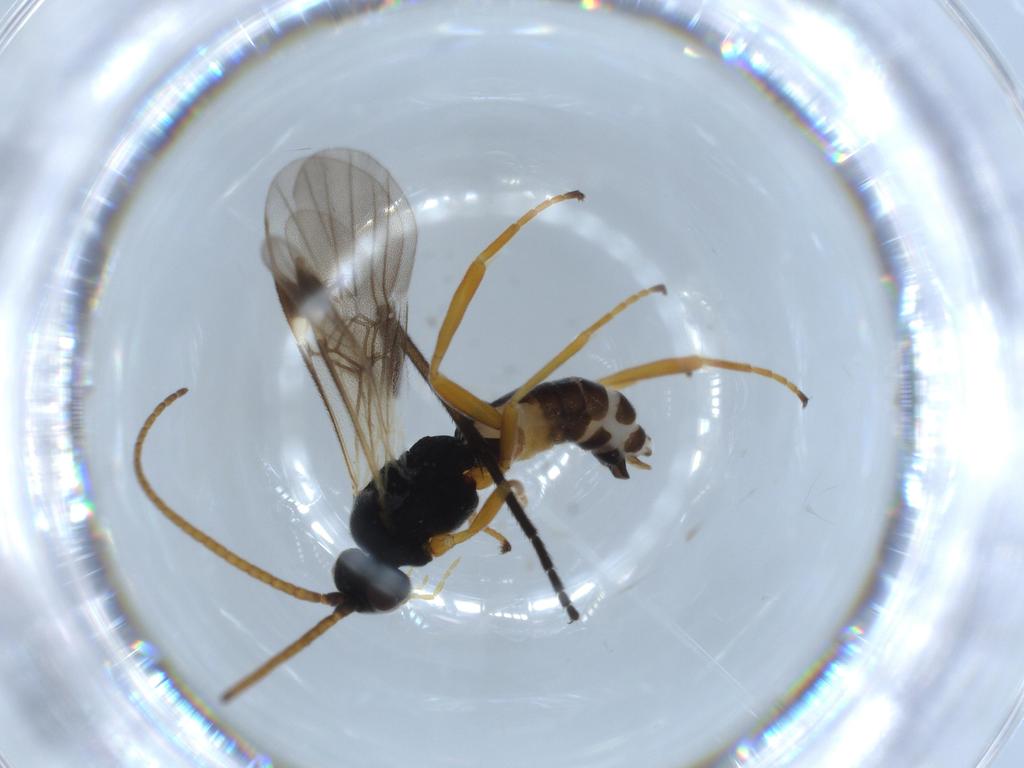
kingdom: Animalia
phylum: Arthropoda
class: Insecta
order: Hymenoptera
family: Braconidae
